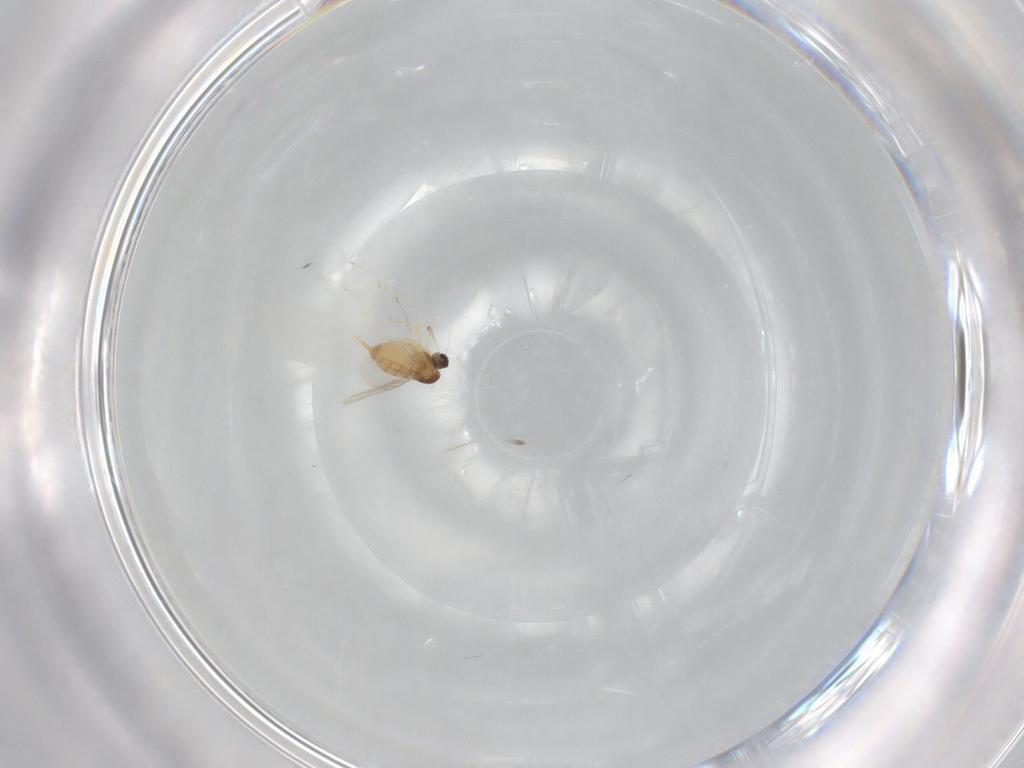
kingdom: Animalia
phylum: Arthropoda
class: Insecta
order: Diptera
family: Cecidomyiidae
